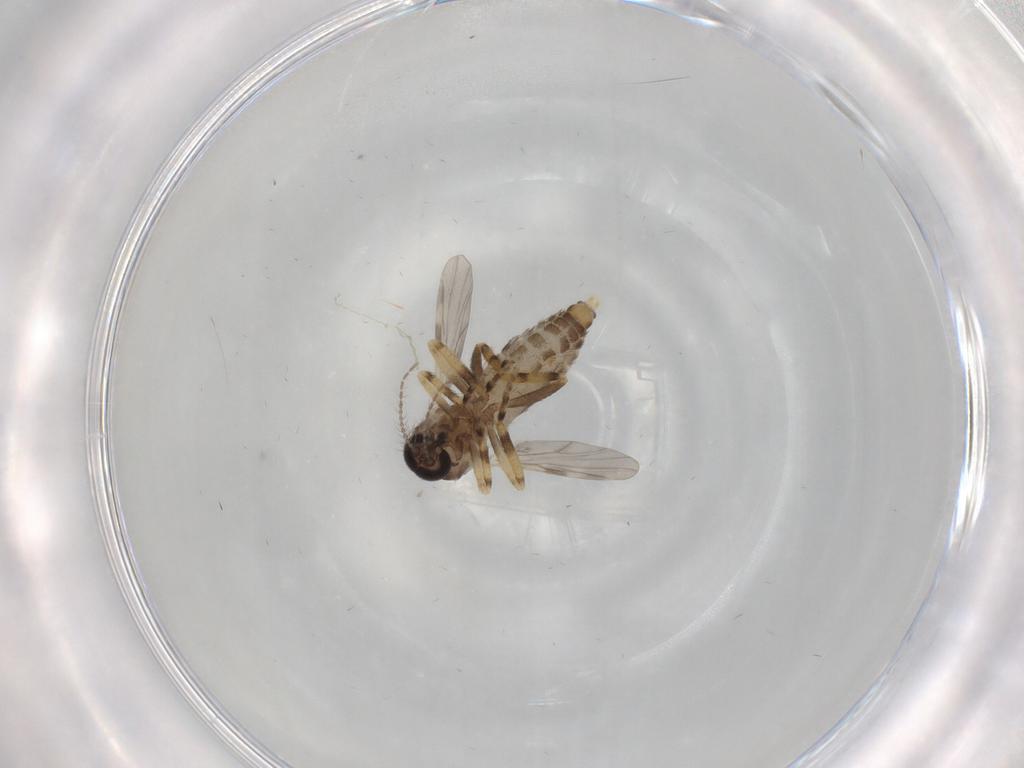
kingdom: Animalia
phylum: Arthropoda
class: Insecta
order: Diptera
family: Ceratopogonidae
